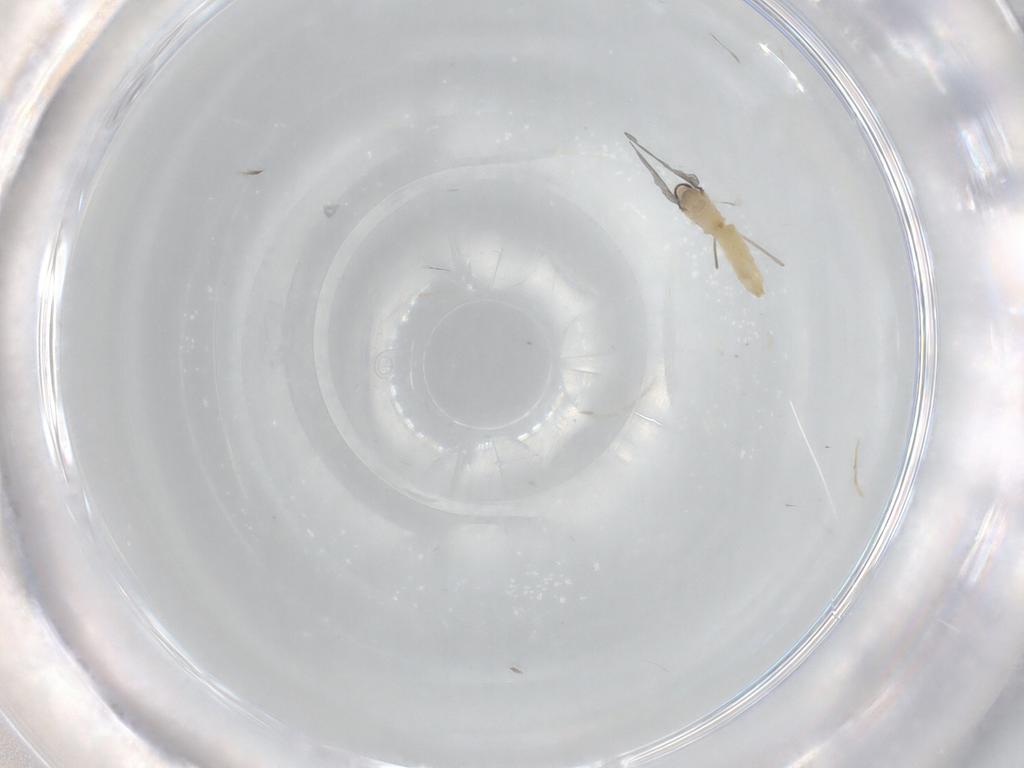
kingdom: Animalia
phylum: Arthropoda
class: Insecta
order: Diptera
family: Cecidomyiidae
